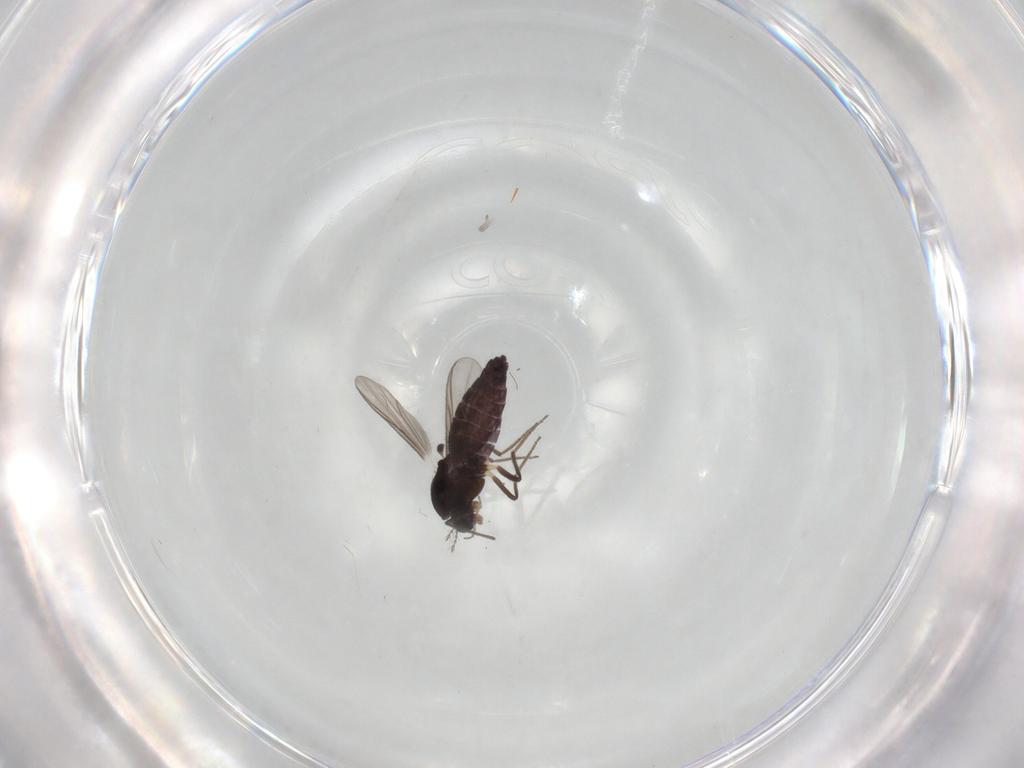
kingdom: Animalia
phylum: Arthropoda
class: Insecta
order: Diptera
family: Chironomidae
